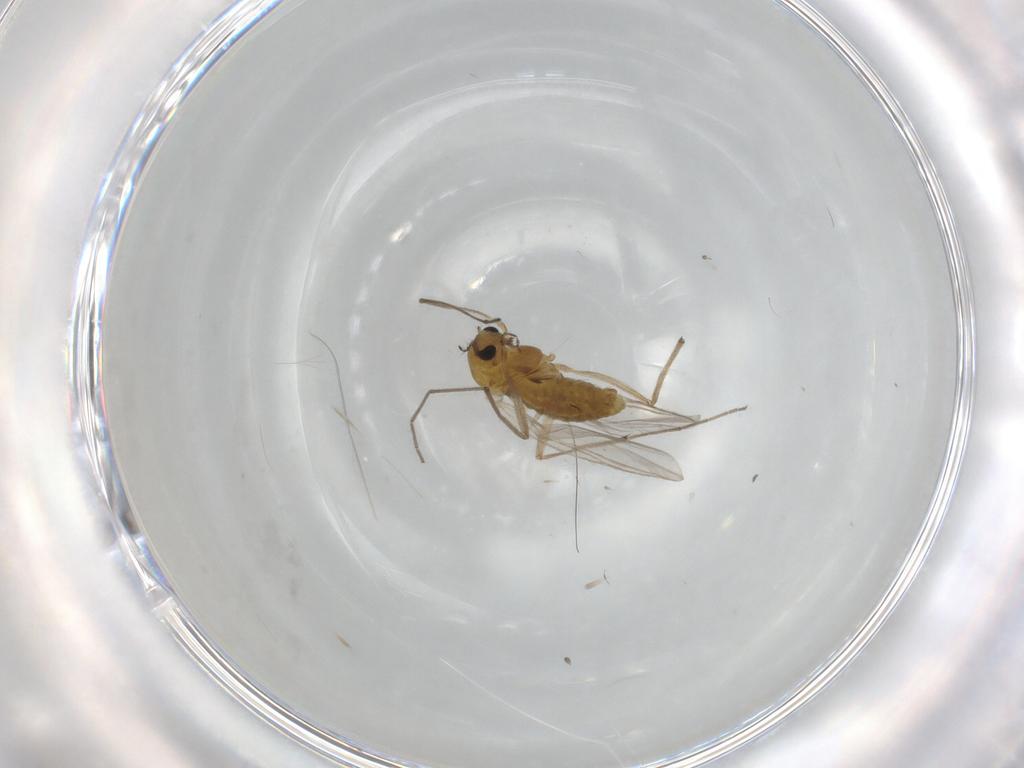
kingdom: Animalia
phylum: Arthropoda
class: Insecta
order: Diptera
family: Chironomidae
